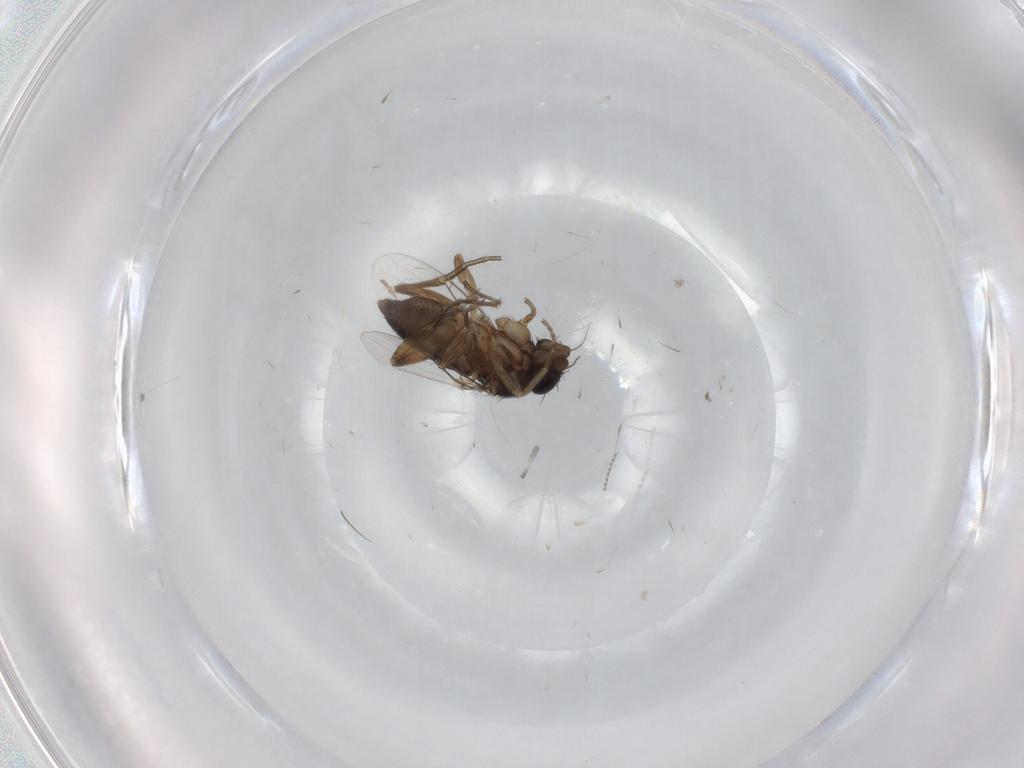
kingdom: Animalia
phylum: Arthropoda
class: Insecta
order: Diptera
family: Phoridae
